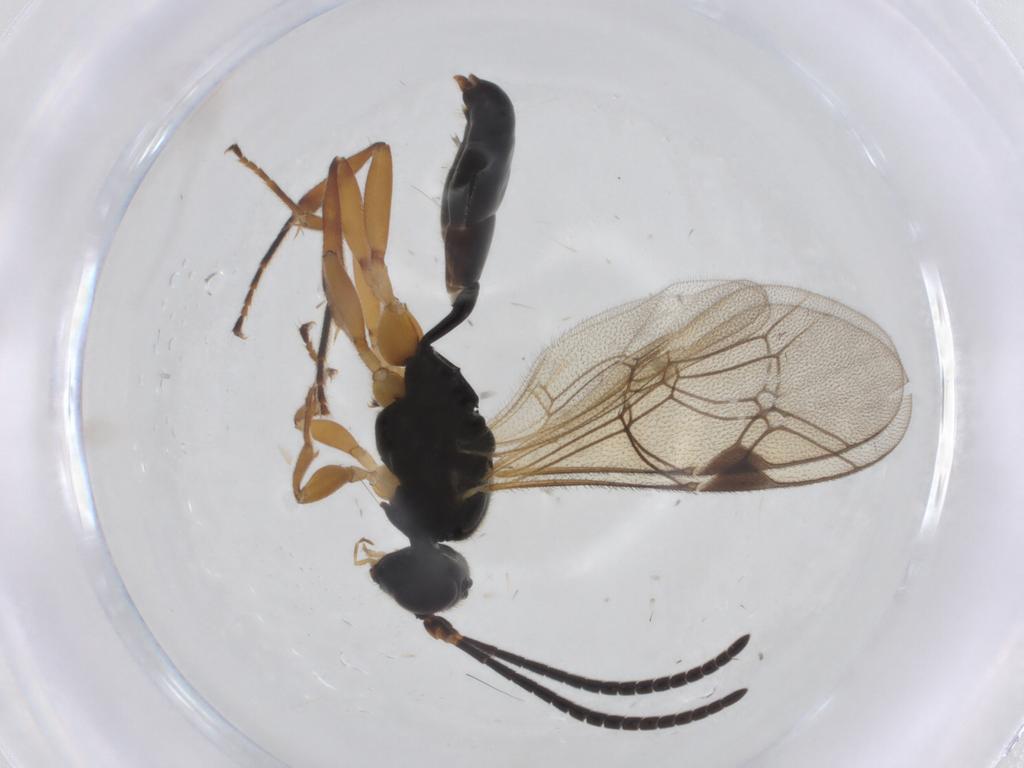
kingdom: Animalia
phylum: Arthropoda
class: Insecta
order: Hymenoptera
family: Ichneumonidae
